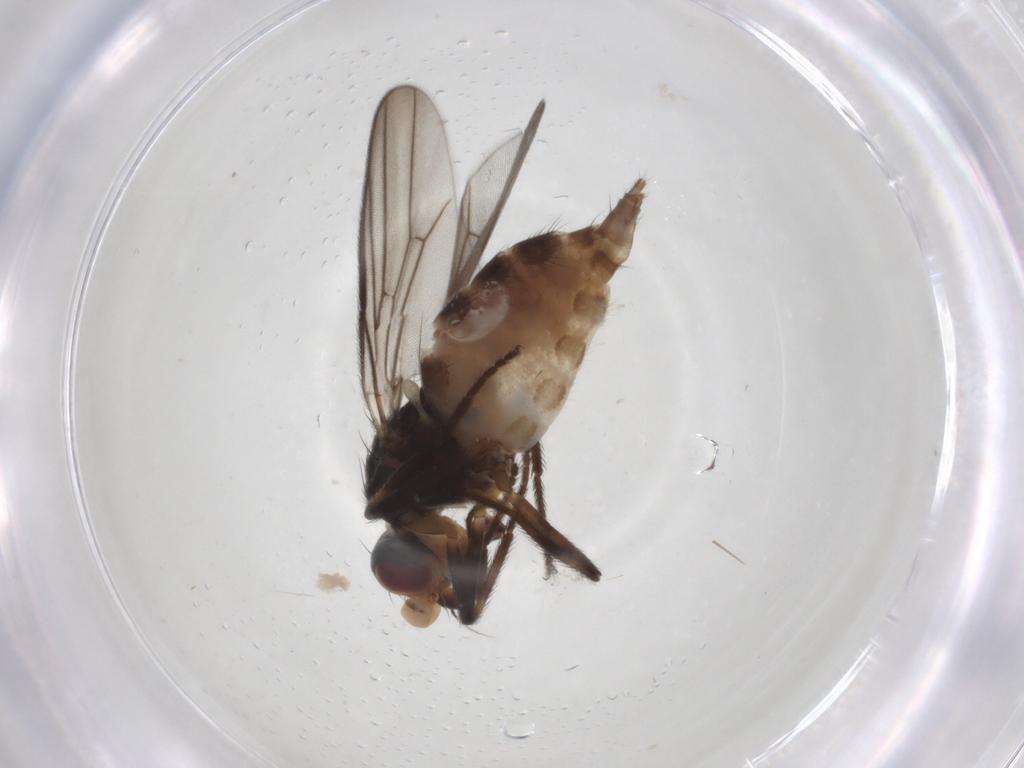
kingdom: Animalia
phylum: Arthropoda
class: Insecta
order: Diptera
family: Chloropidae
